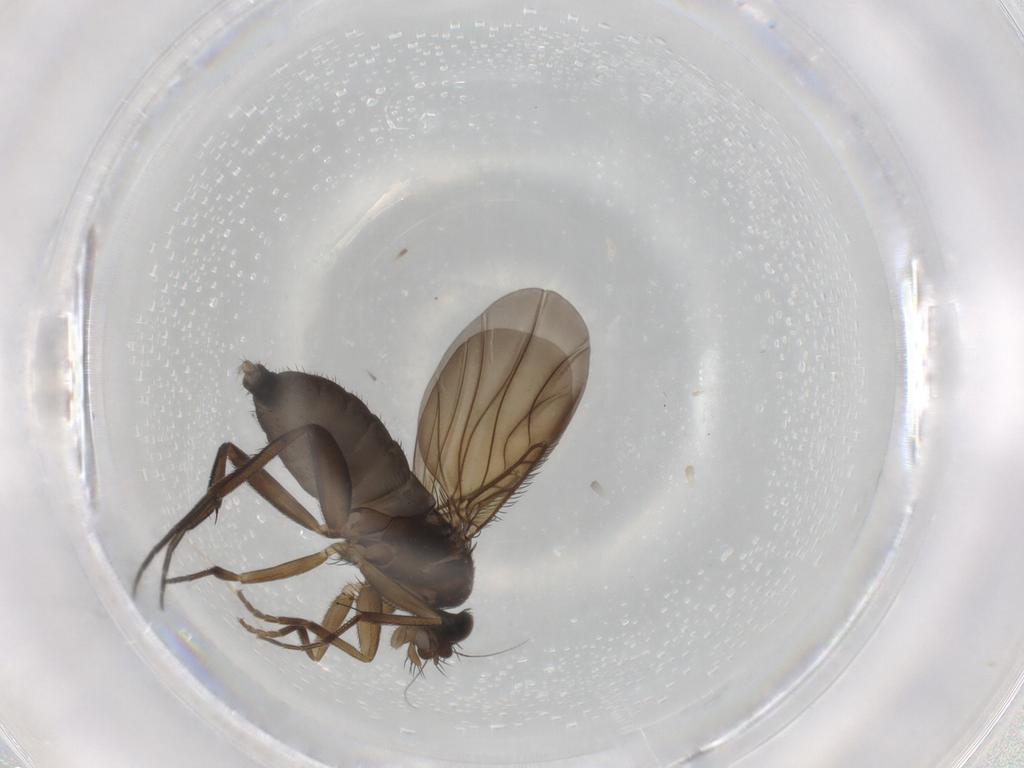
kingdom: Animalia
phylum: Arthropoda
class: Insecta
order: Diptera
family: Phoridae
